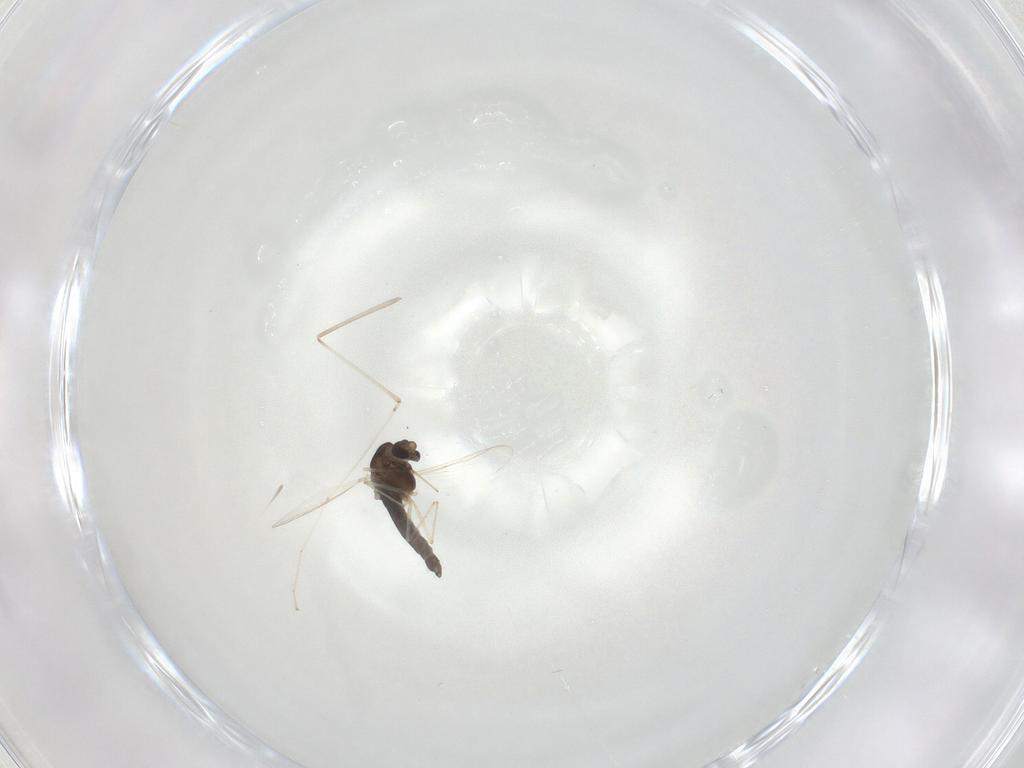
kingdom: Animalia
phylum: Arthropoda
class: Insecta
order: Diptera
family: Chironomidae
